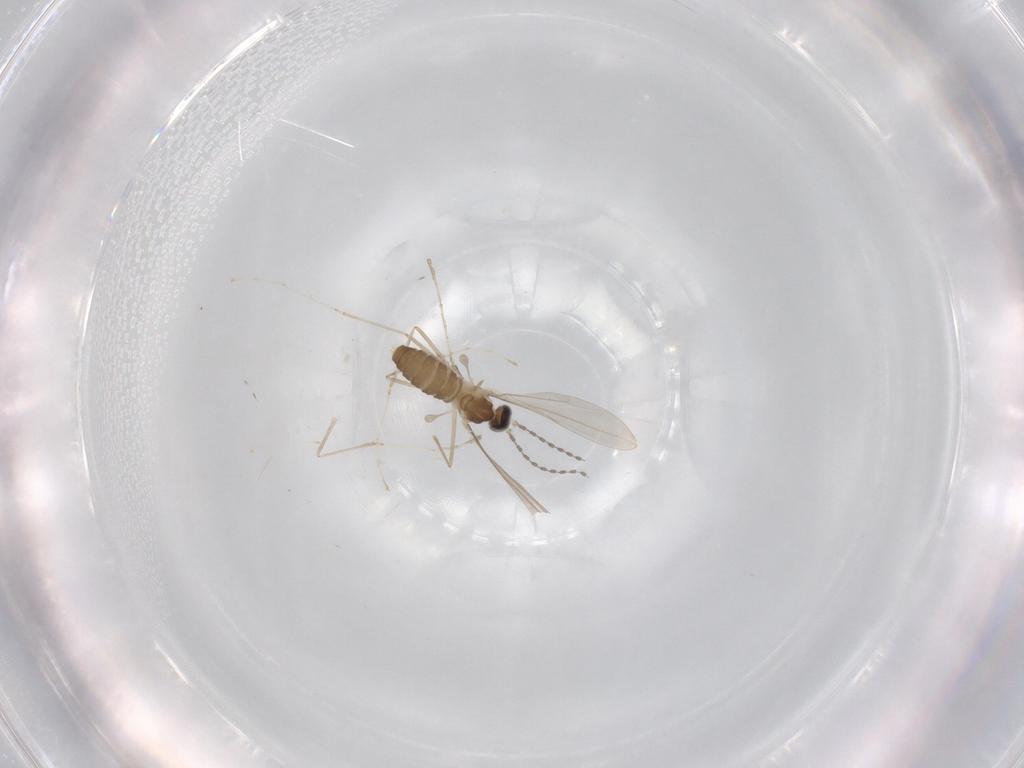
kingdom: Animalia
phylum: Arthropoda
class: Insecta
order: Diptera
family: Cecidomyiidae
